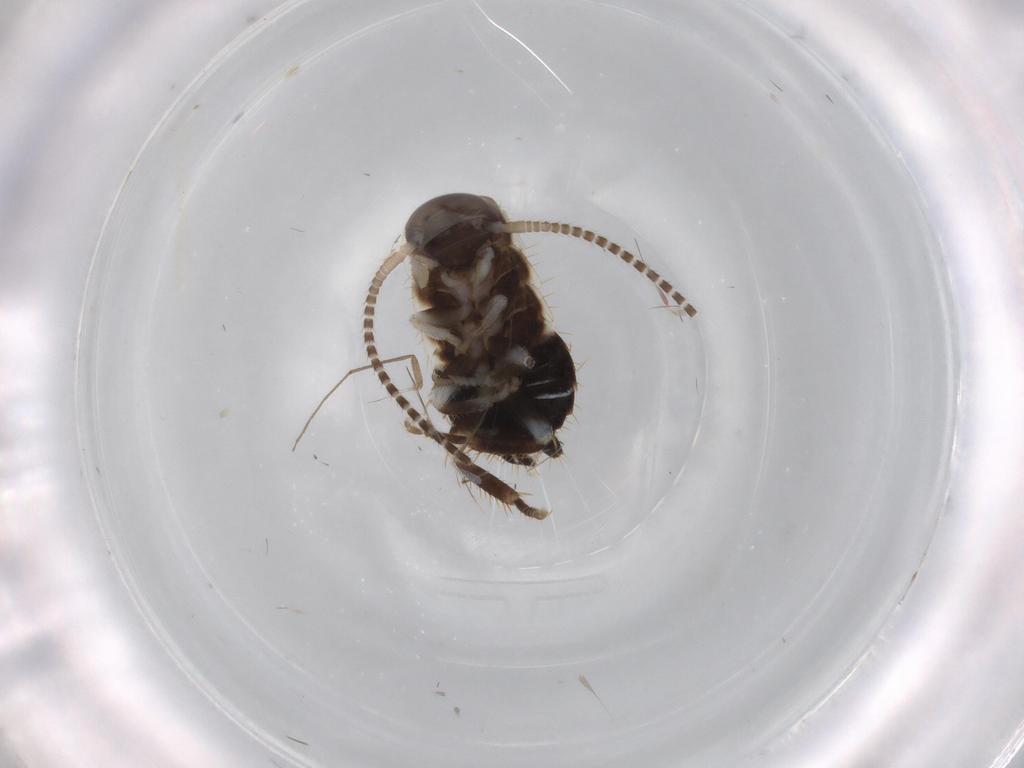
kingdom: Animalia
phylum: Arthropoda
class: Insecta
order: Blattodea
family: Ectobiidae
